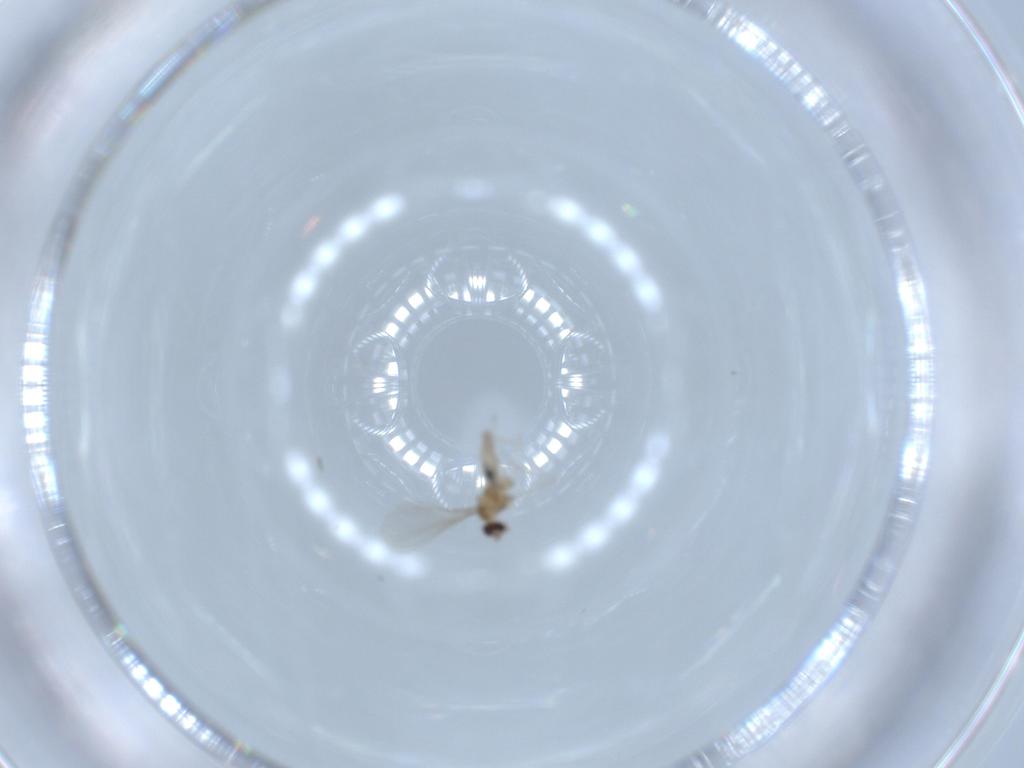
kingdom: Animalia
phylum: Arthropoda
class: Insecta
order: Diptera
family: Cecidomyiidae
